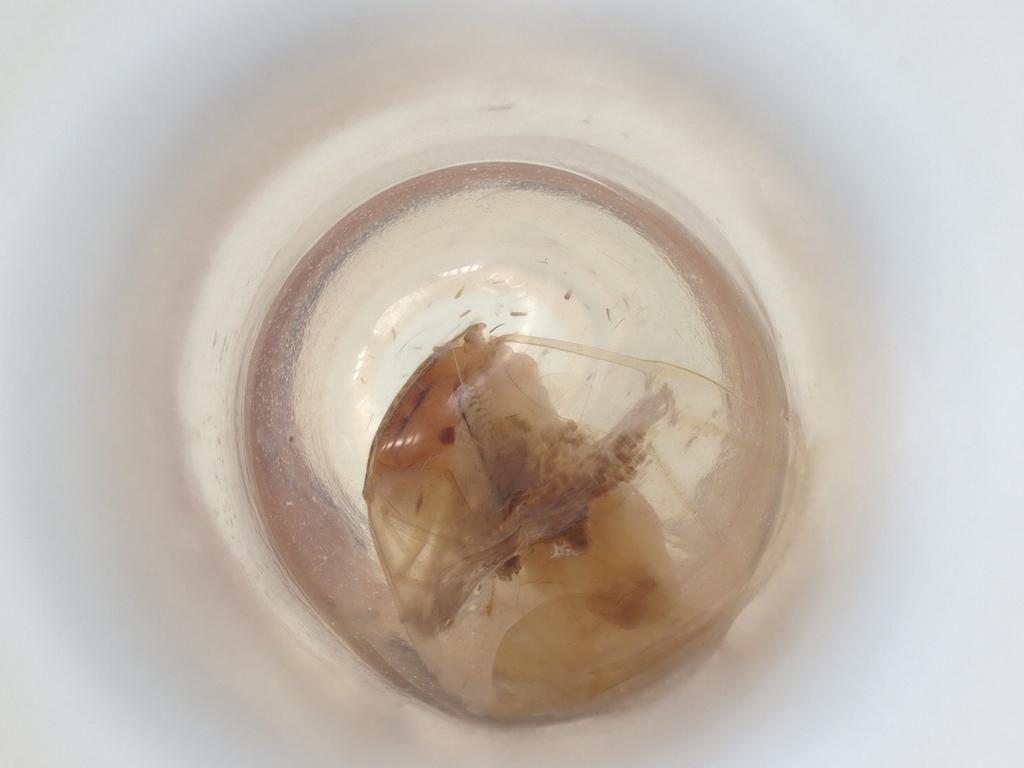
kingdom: Animalia
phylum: Arthropoda
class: Insecta
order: Hemiptera
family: Miridae
